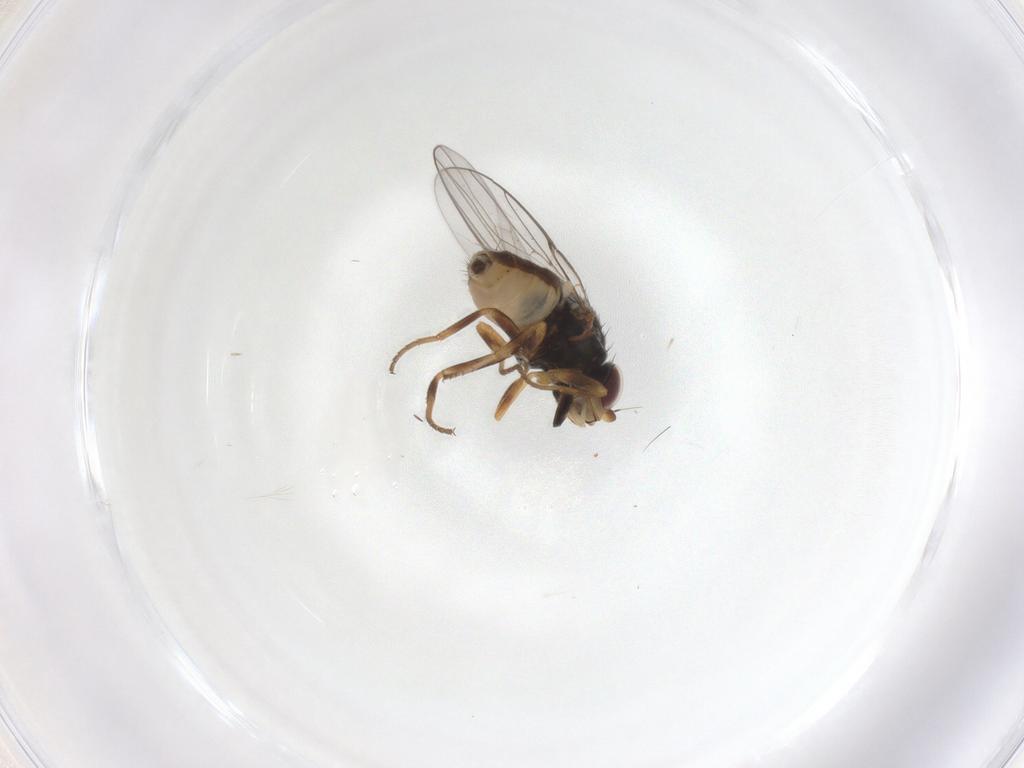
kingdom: Animalia
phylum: Arthropoda
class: Insecta
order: Diptera
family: Chloropidae
